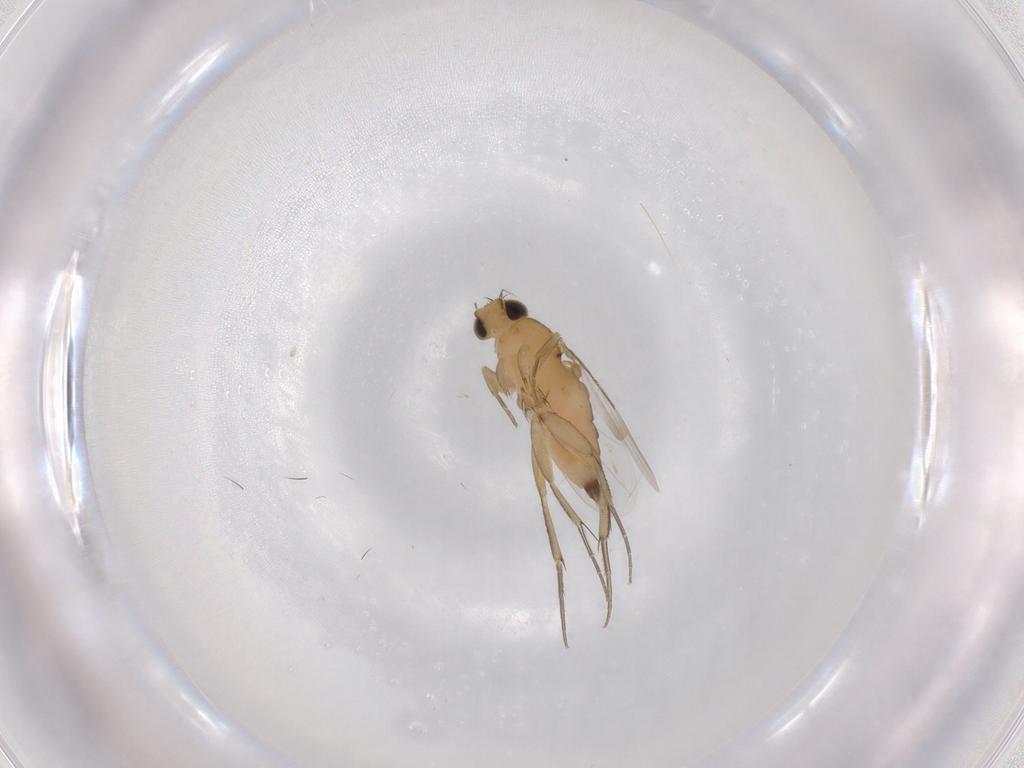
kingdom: Animalia
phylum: Arthropoda
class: Insecta
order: Diptera
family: Phoridae
